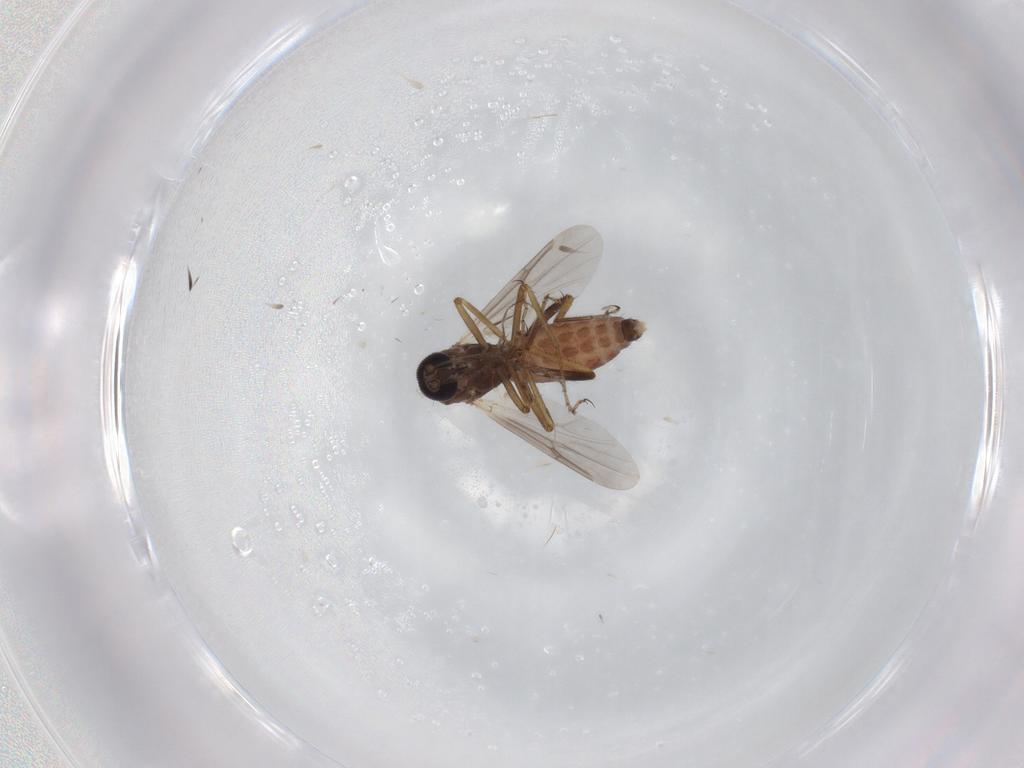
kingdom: Animalia
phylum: Arthropoda
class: Insecta
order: Diptera
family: Ceratopogonidae
